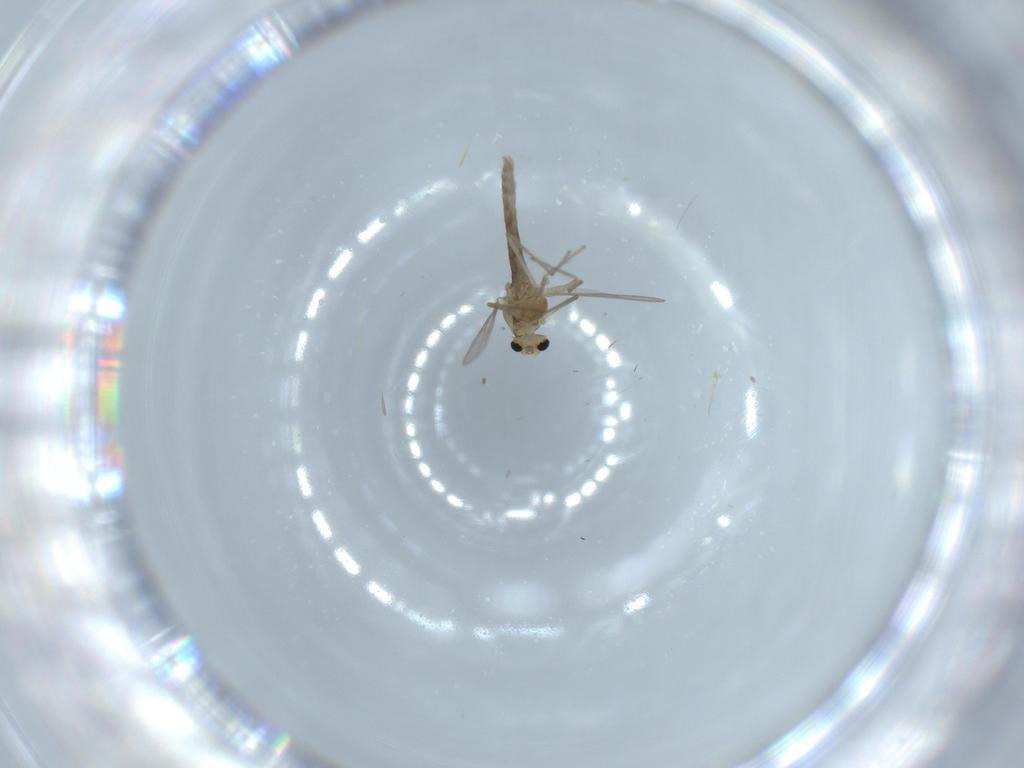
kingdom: Animalia
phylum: Arthropoda
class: Insecta
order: Diptera
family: Chironomidae
